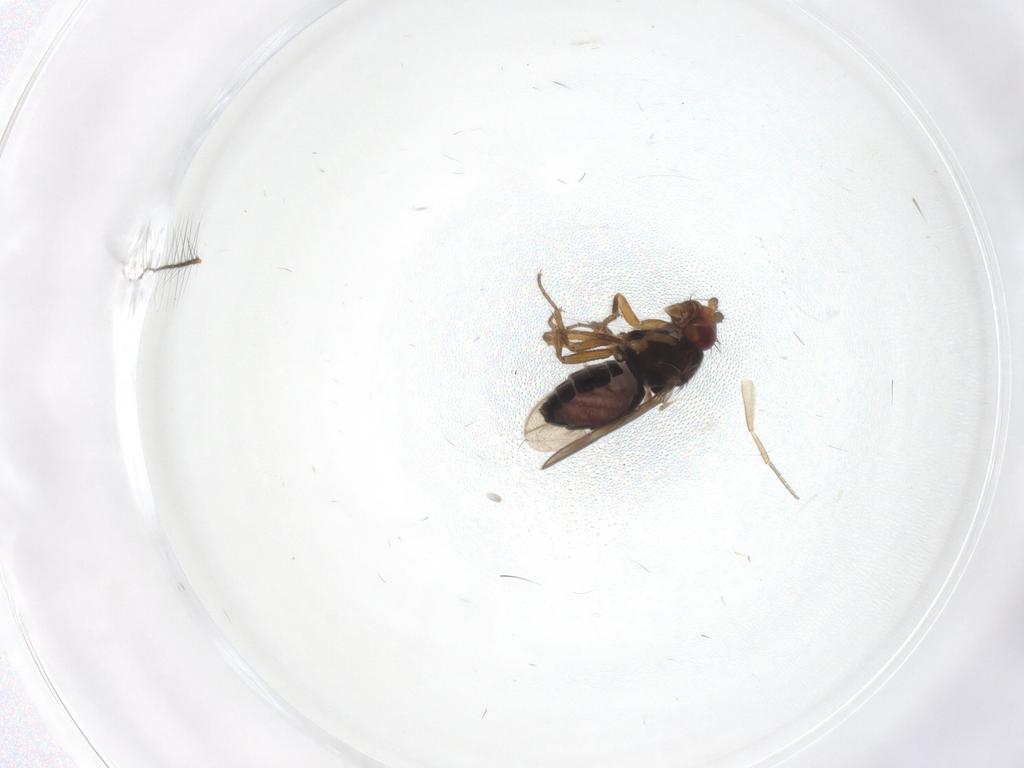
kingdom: Animalia
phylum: Arthropoda
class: Insecta
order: Diptera
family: Sphaeroceridae
